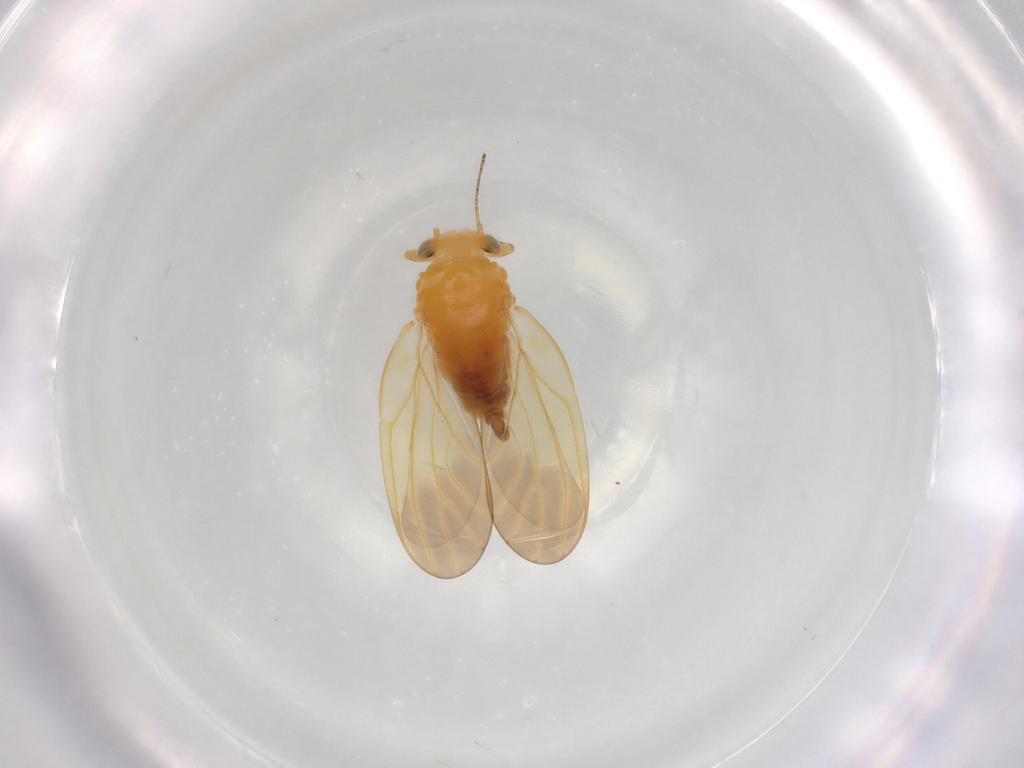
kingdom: Animalia
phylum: Arthropoda
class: Insecta
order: Hemiptera
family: Aphalaridae
